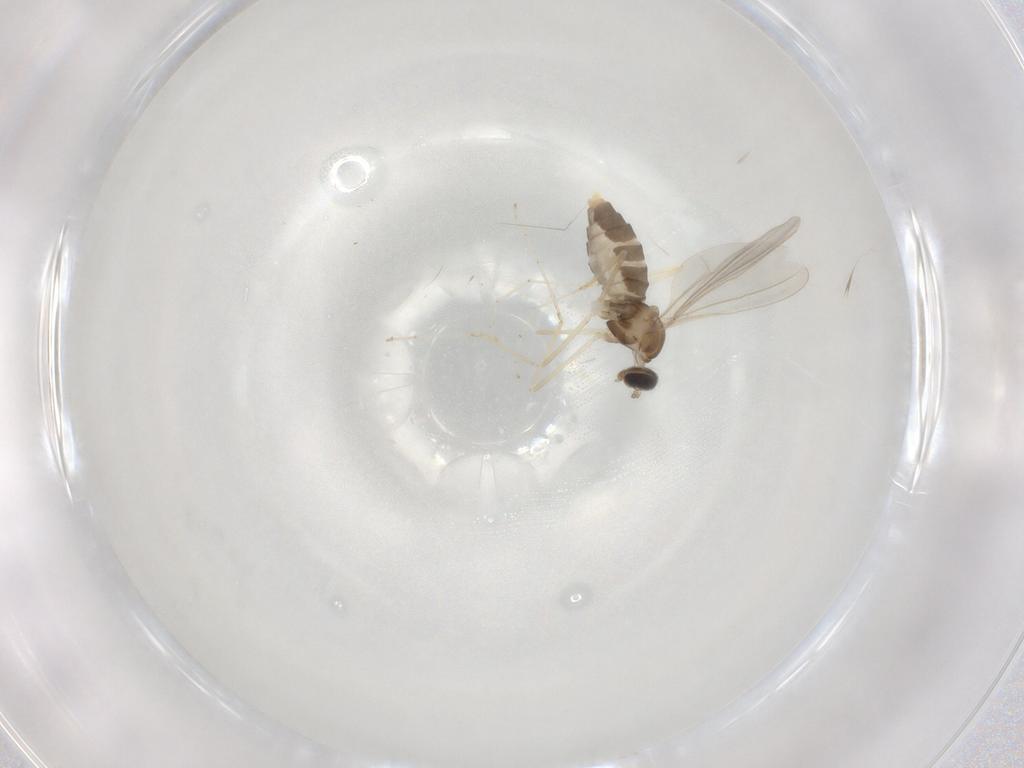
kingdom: Animalia
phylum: Arthropoda
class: Insecta
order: Diptera
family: Cecidomyiidae
